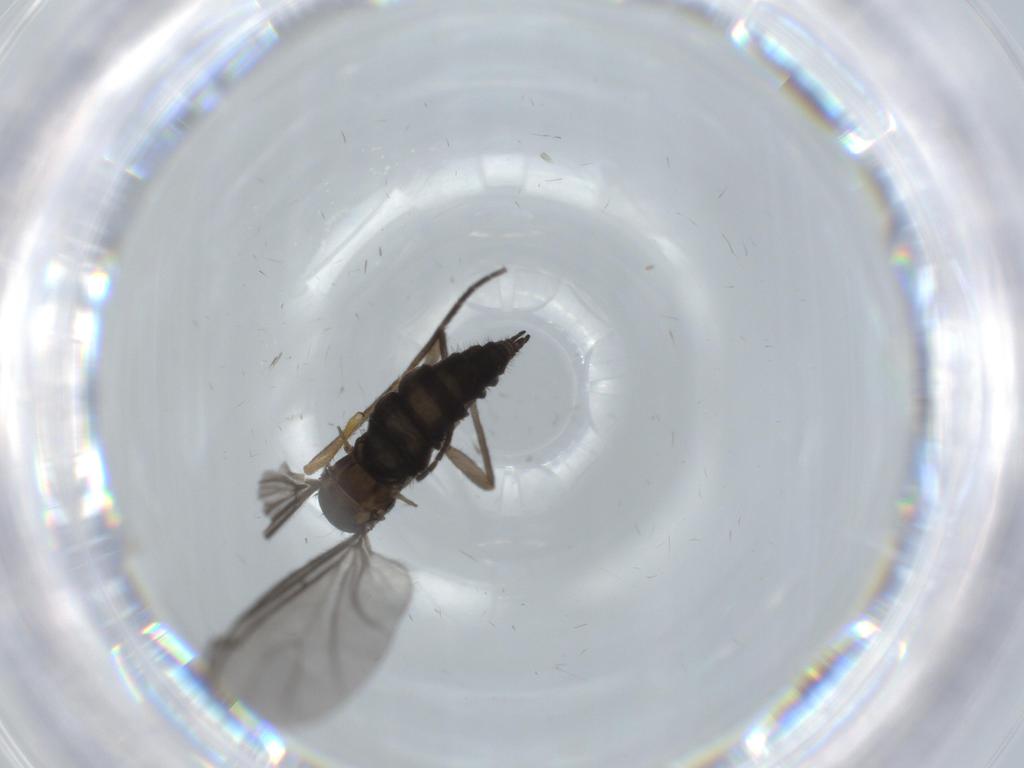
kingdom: Animalia
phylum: Arthropoda
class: Insecta
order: Diptera
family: Sciaridae
